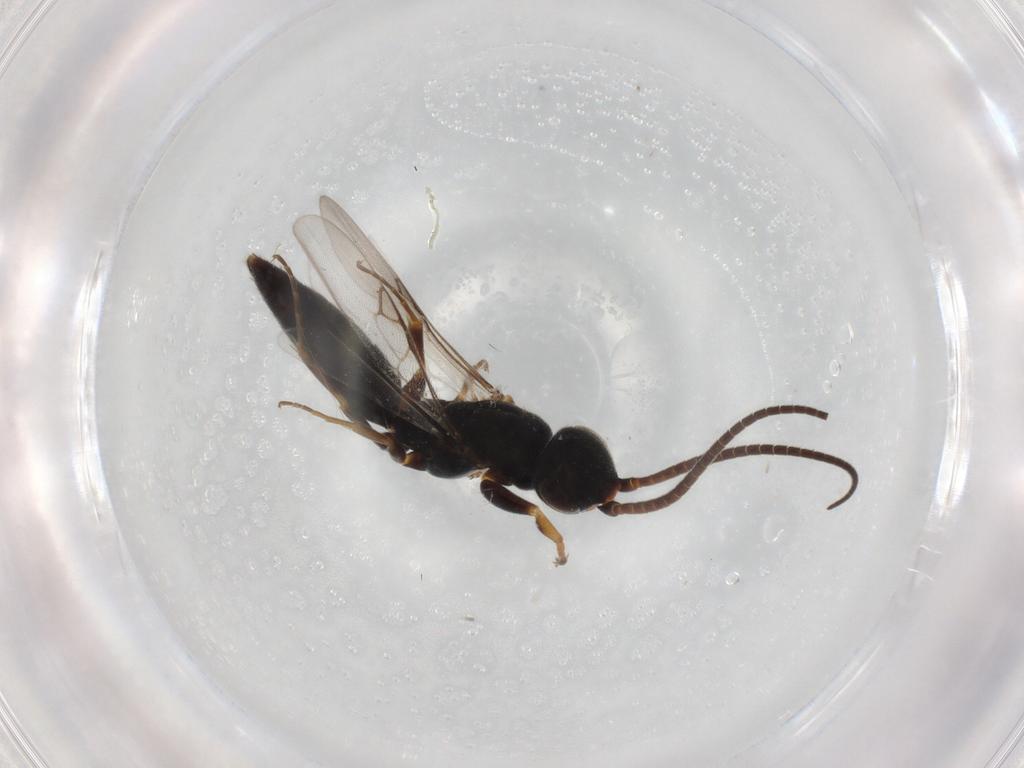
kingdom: Animalia
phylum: Arthropoda
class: Insecta
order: Hymenoptera
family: Sclerogibbidae
